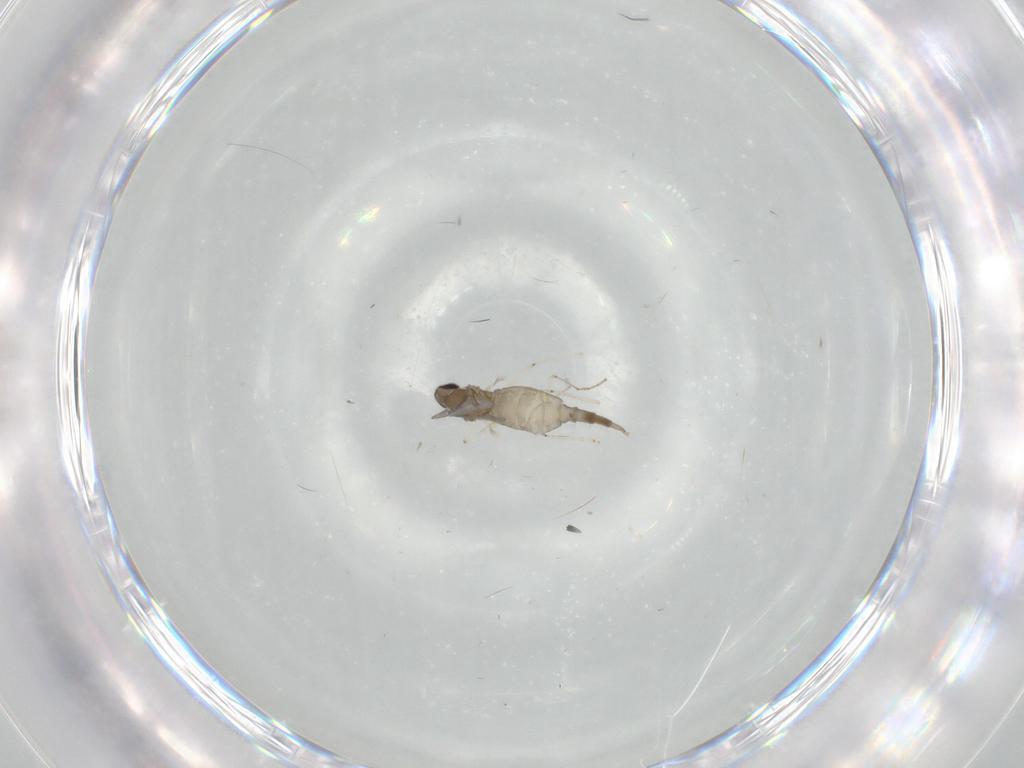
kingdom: Animalia
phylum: Arthropoda
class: Insecta
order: Diptera
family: Cecidomyiidae
